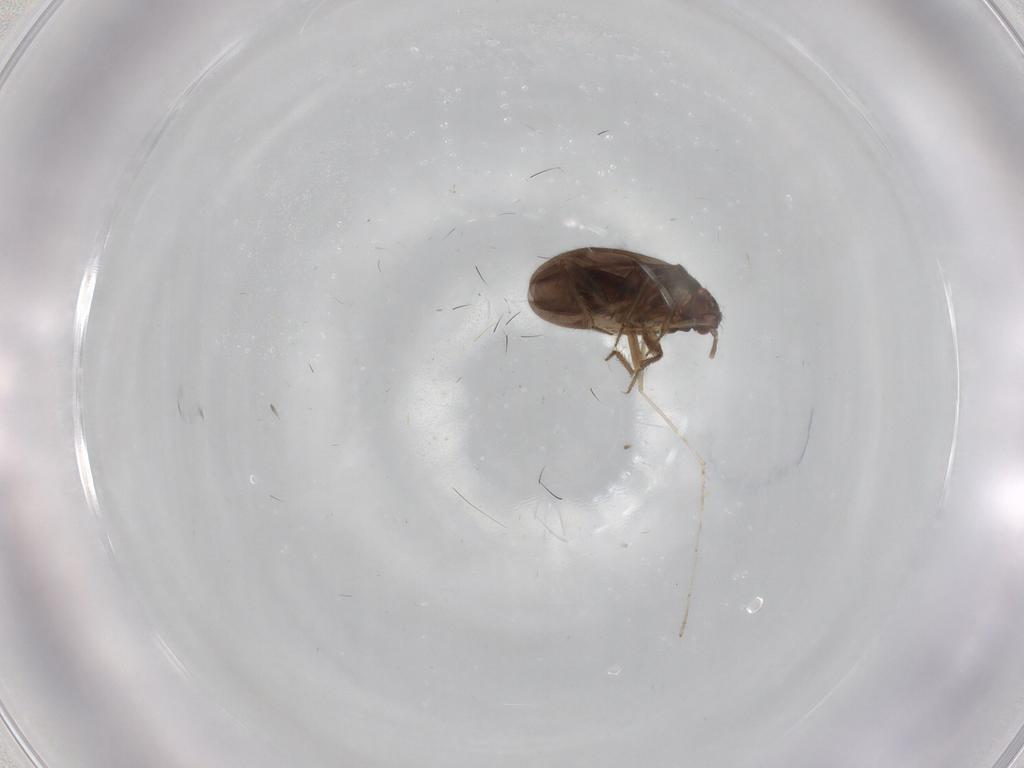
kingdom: Animalia
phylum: Arthropoda
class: Insecta
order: Hemiptera
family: Ceratocombidae
